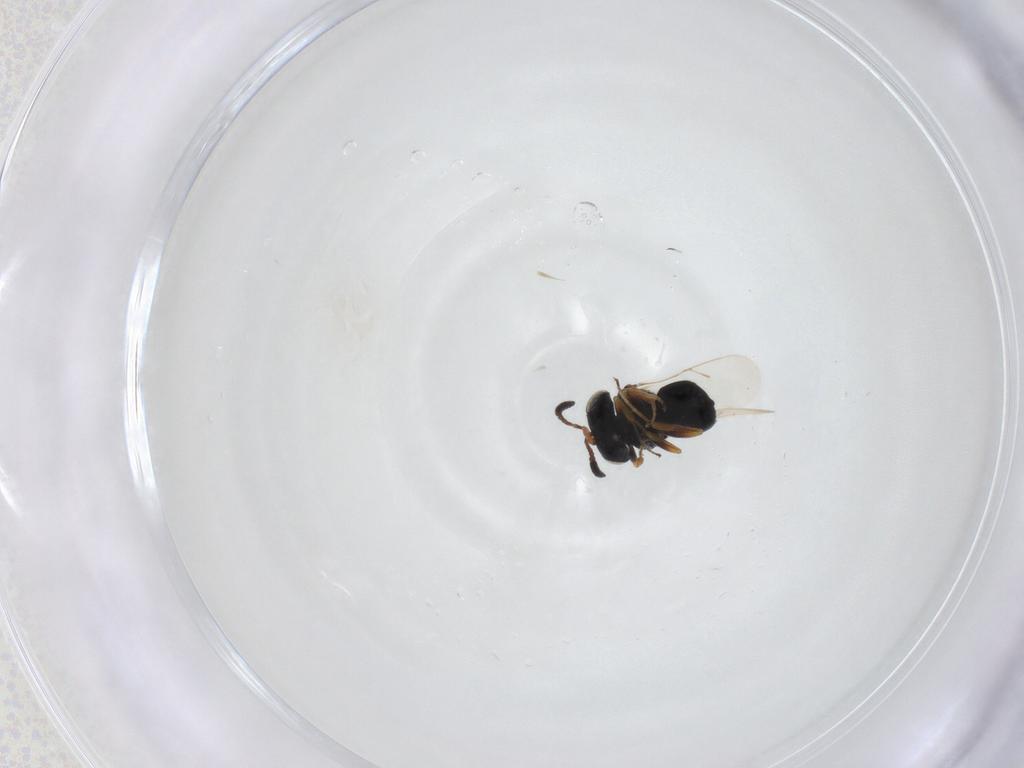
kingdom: Animalia
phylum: Arthropoda
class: Insecta
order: Hymenoptera
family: Scelionidae
